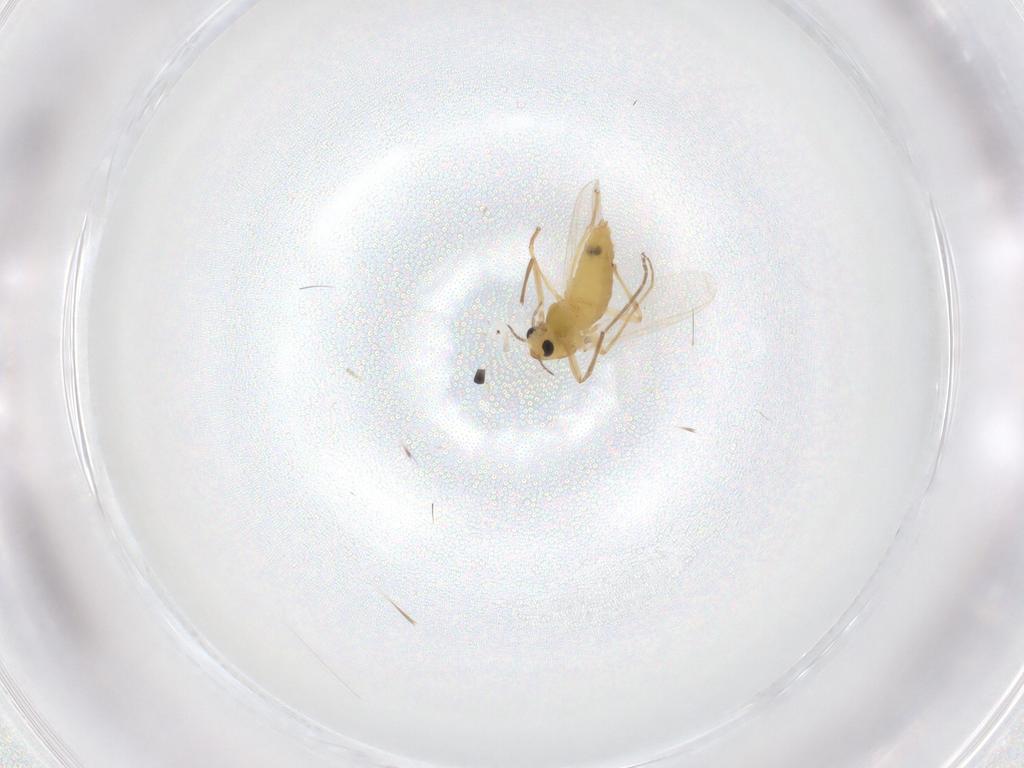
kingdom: Animalia
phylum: Arthropoda
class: Insecta
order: Diptera
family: Chironomidae
